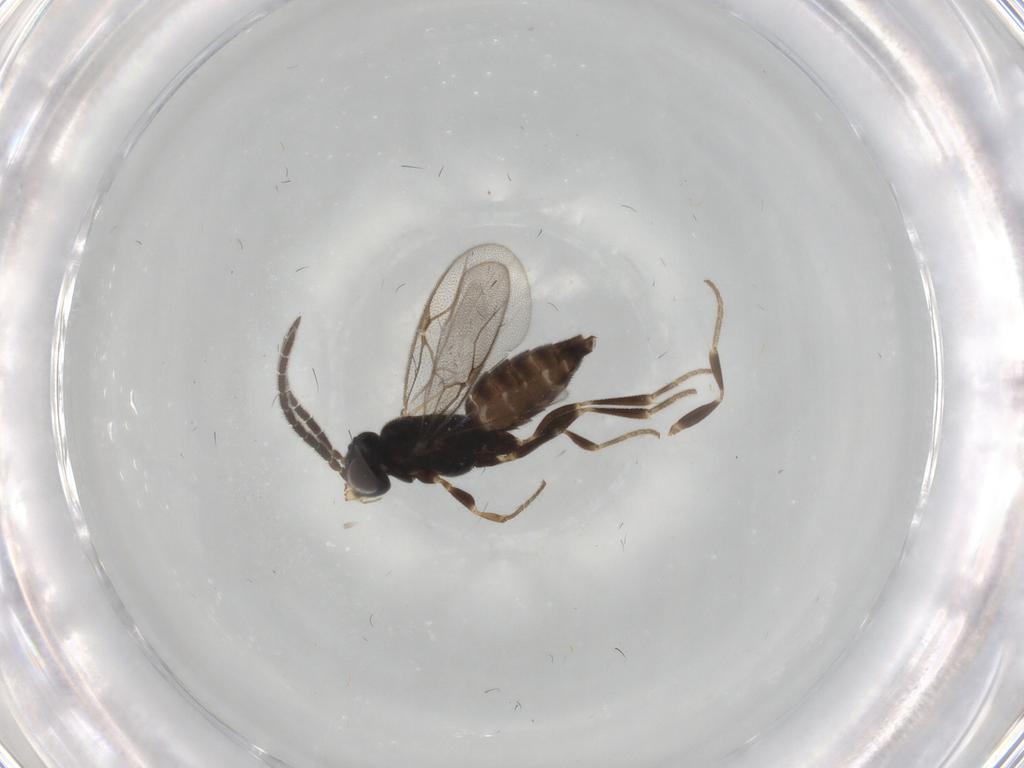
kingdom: Animalia
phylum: Arthropoda
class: Insecta
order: Hymenoptera
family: Dryinidae
